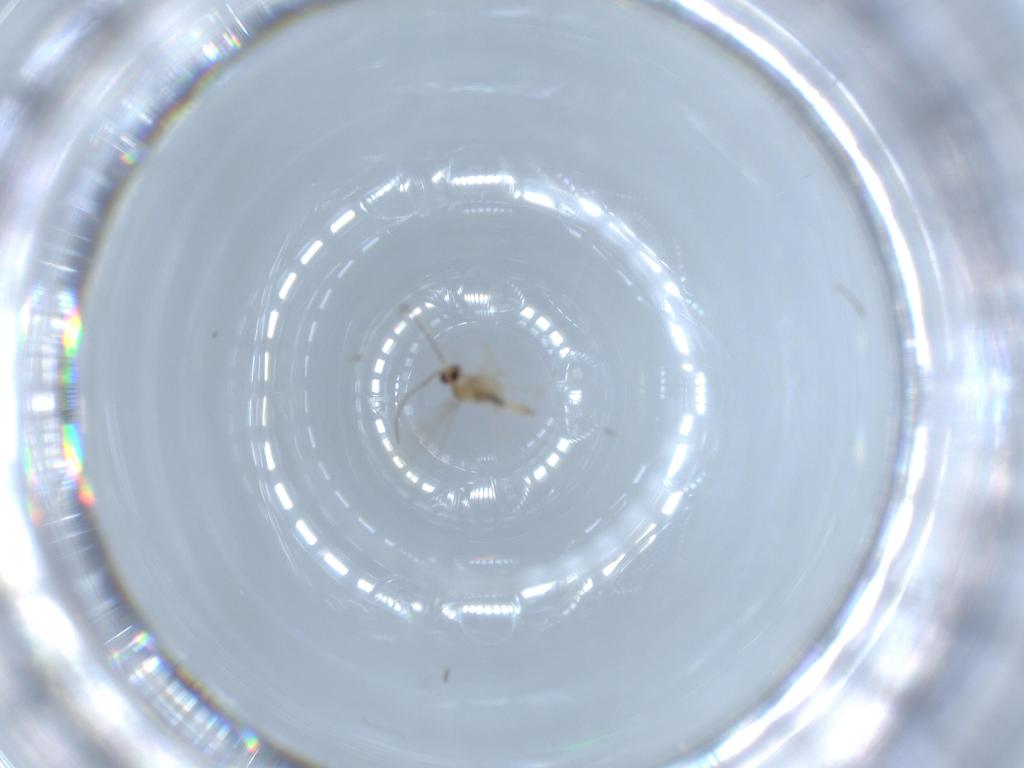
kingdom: Animalia
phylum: Arthropoda
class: Insecta
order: Diptera
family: Cecidomyiidae
